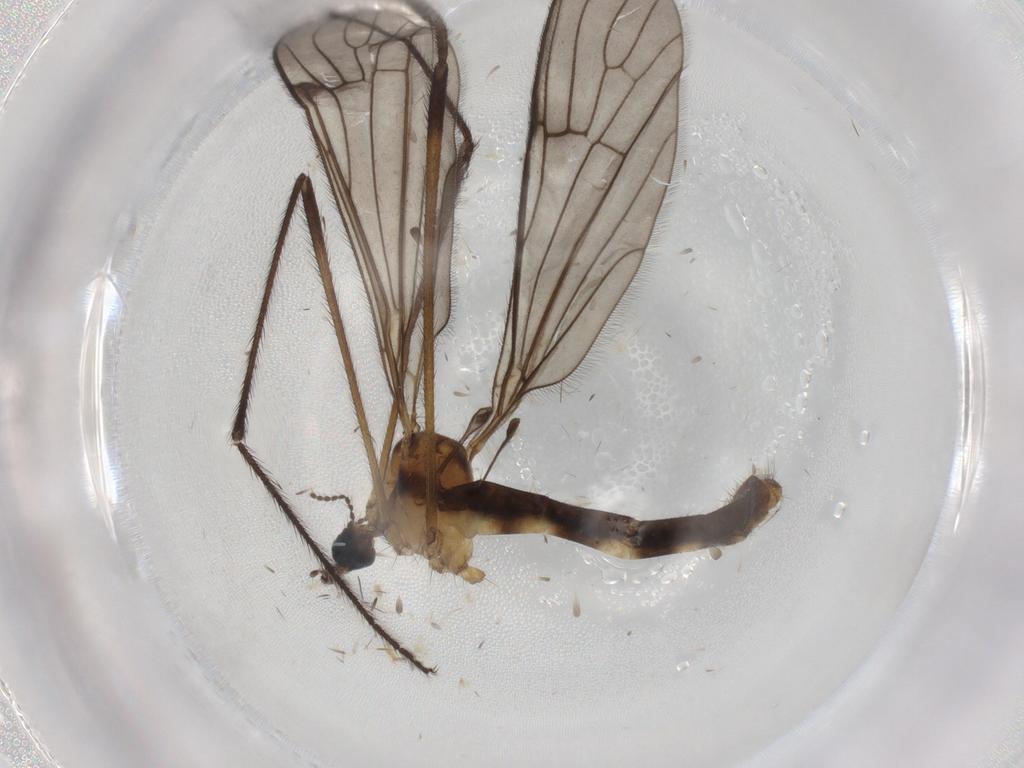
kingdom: Animalia
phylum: Arthropoda
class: Insecta
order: Diptera
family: Limoniidae
